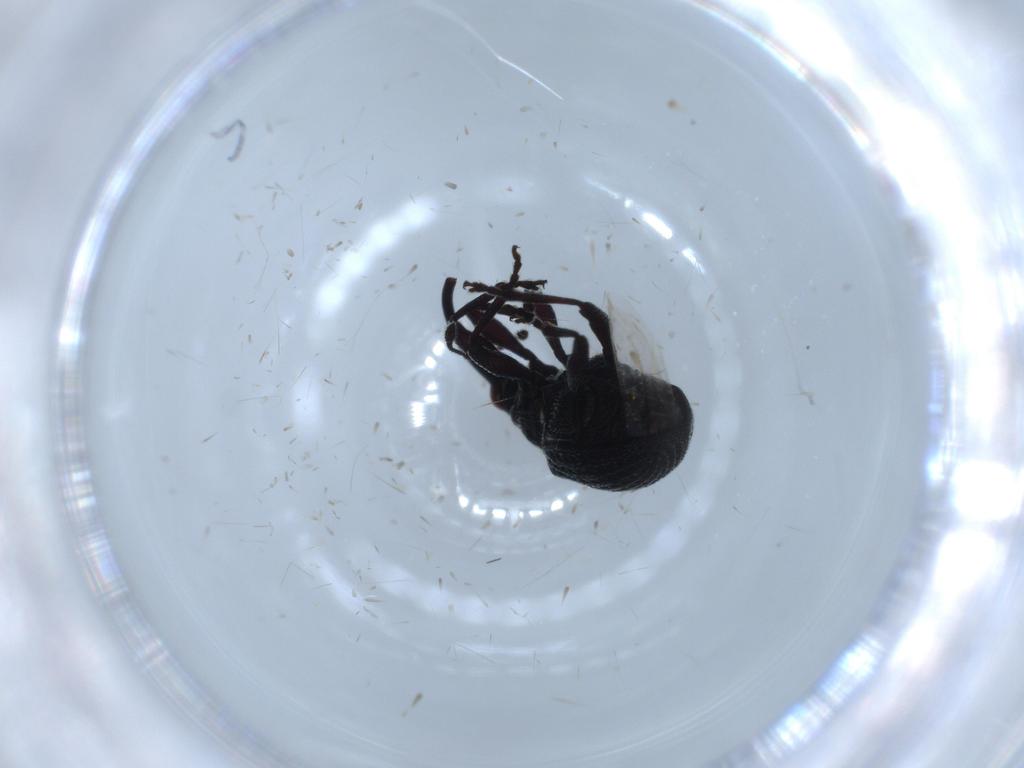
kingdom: Animalia
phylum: Arthropoda
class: Insecta
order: Coleoptera
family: Brentidae
